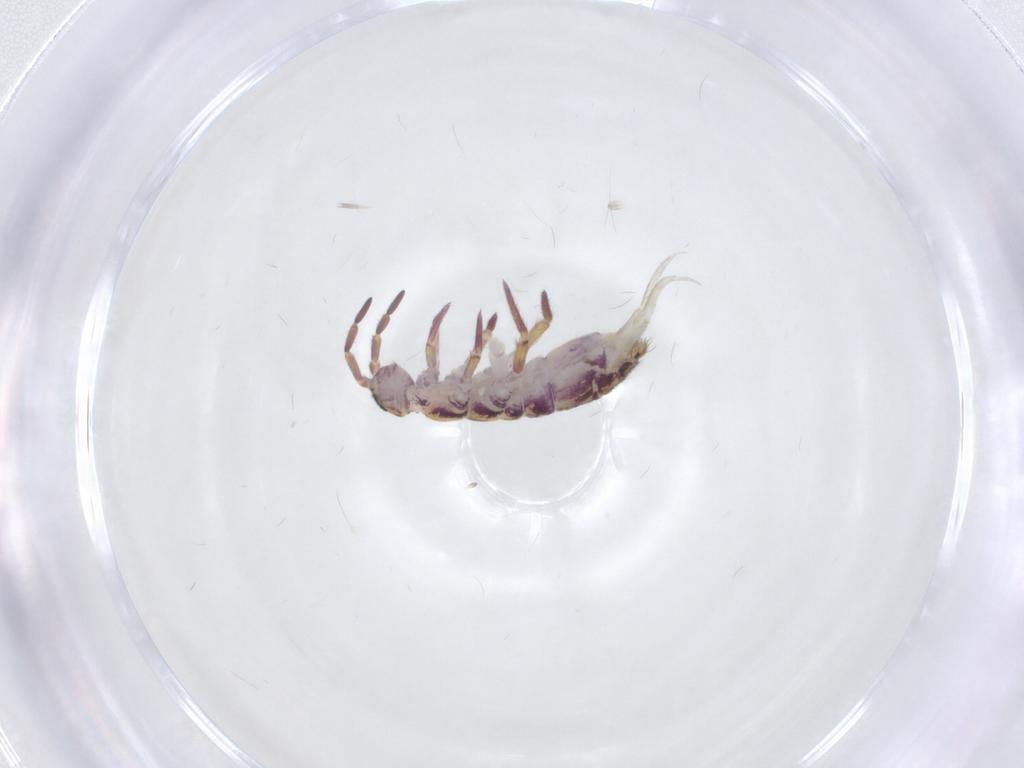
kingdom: Animalia
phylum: Arthropoda
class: Collembola
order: Entomobryomorpha
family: Isotomidae
